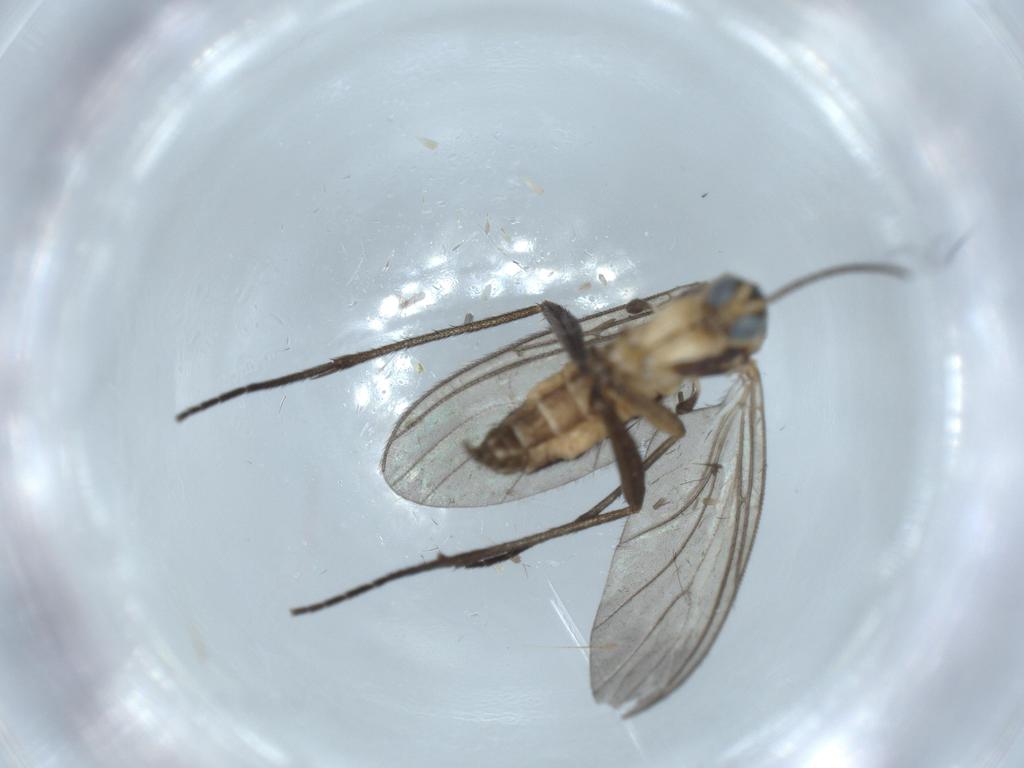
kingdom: Animalia
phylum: Arthropoda
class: Insecta
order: Diptera
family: Sciaridae
